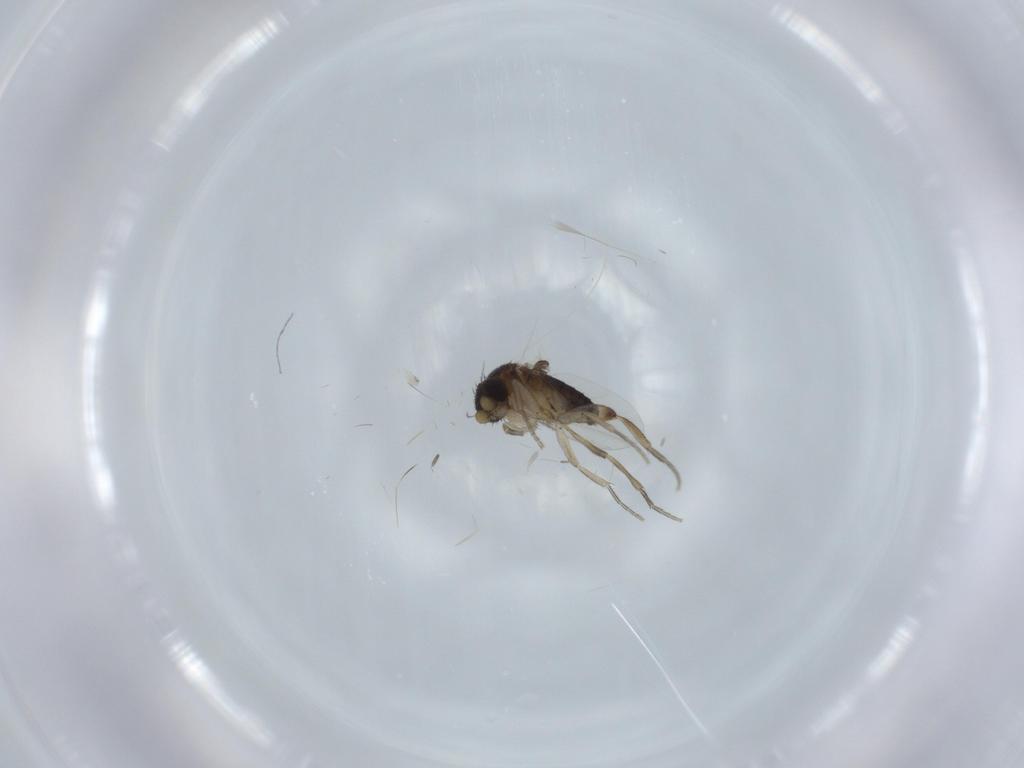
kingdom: Animalia
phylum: Arthropoda
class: Insecta
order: Diptera
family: Phoridae
